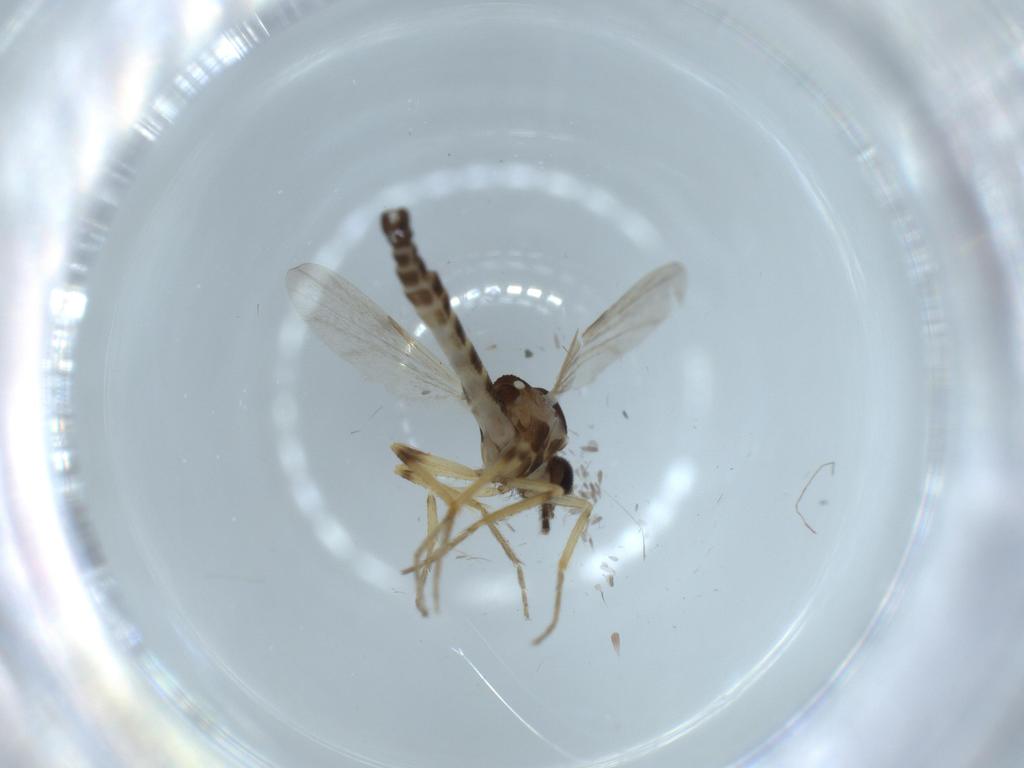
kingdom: Animalia
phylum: Arthropoda
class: Insecta
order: Diptera
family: Ceratopogonidae
